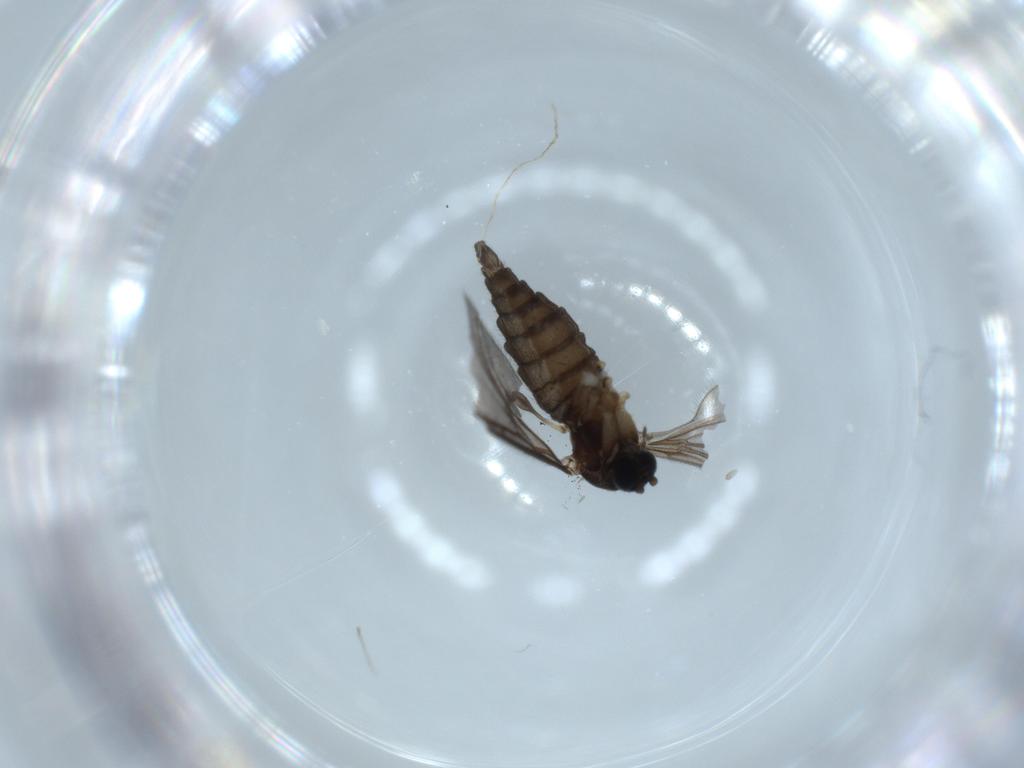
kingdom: Animalia
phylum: Arthropoda
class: Insecta
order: Diptera
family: Sciaridae
